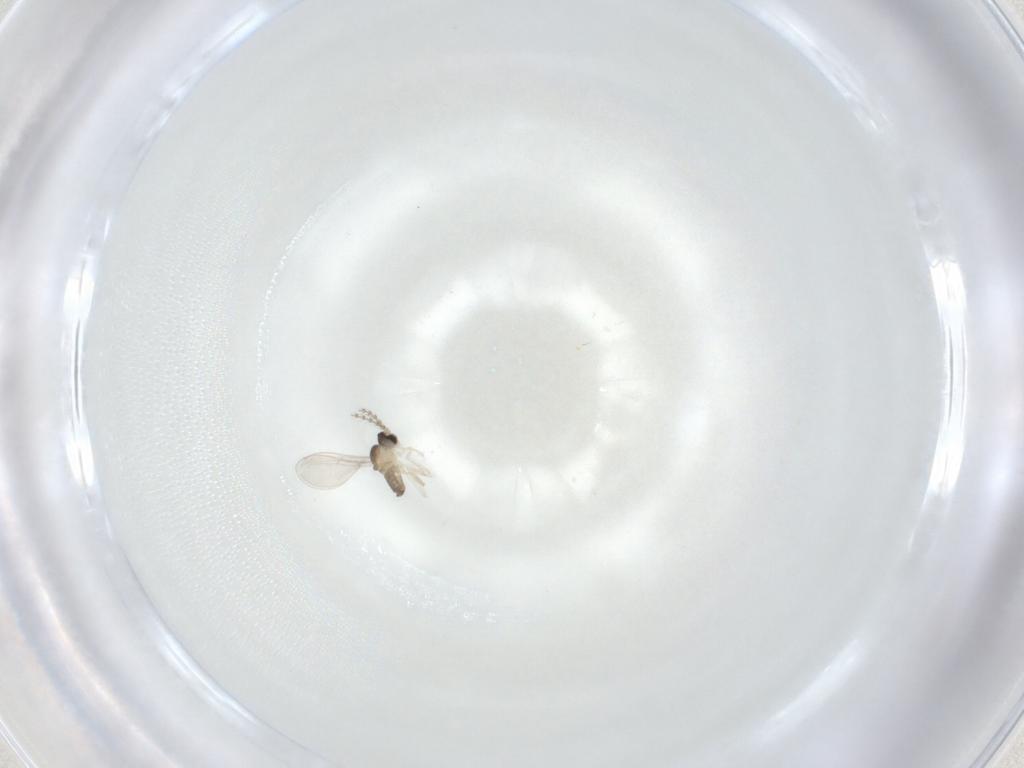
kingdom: Animalia
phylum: Arthropoda
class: Insecta
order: Diptera
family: Cecidomyiidae
